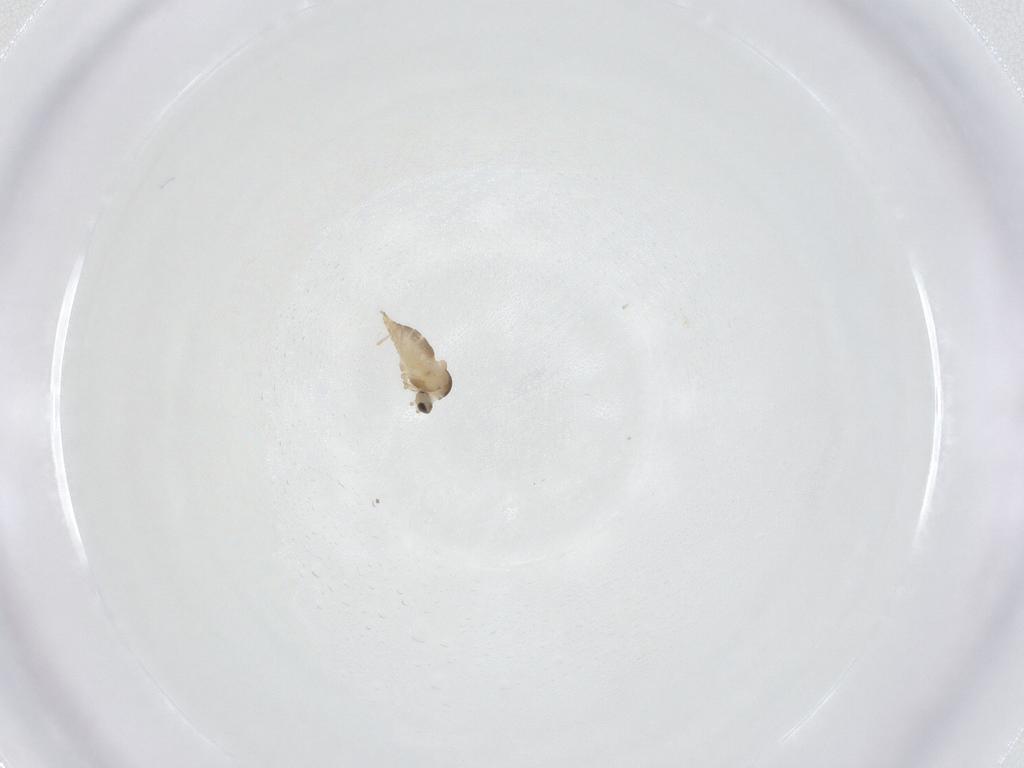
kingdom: Animalia
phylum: Arthropoda
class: Insecta
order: Diptera
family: Cecidomyiidae
